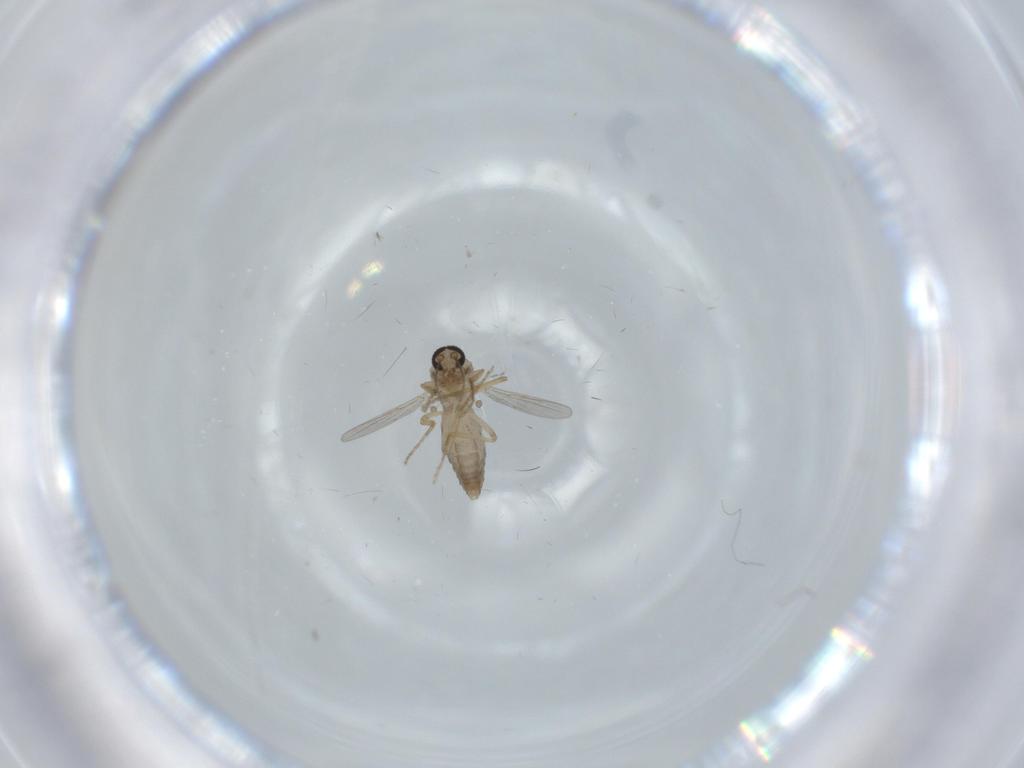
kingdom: Animalia
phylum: Arthropoda
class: Insecta
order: Diptera
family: Ceratopogonidae
